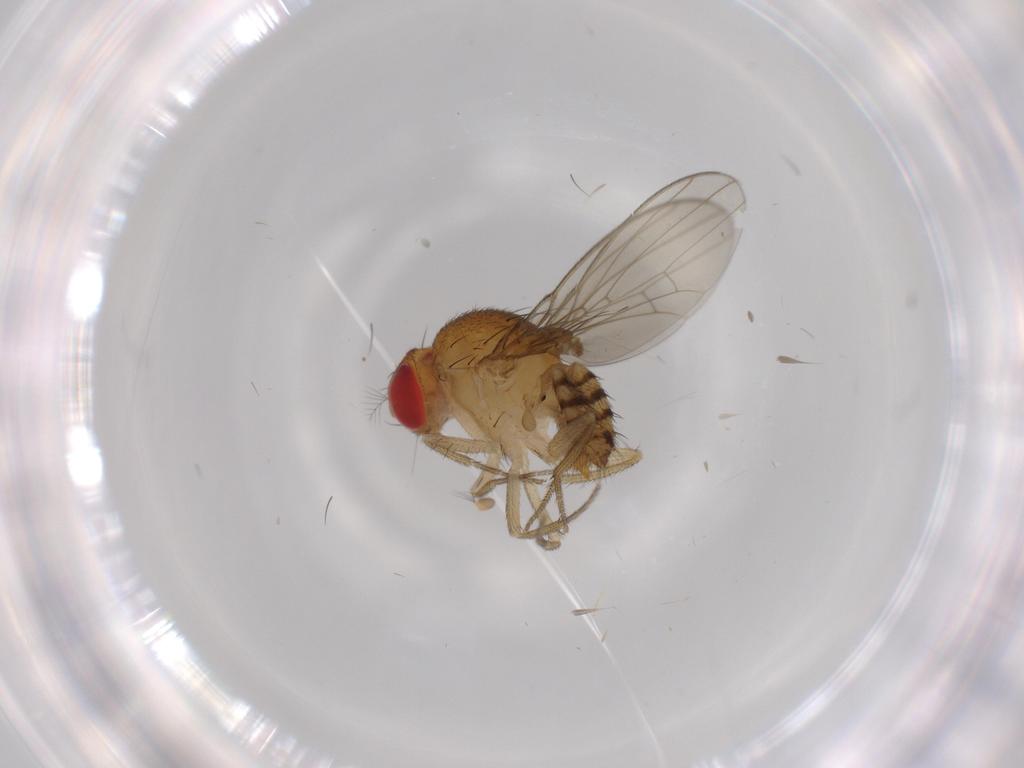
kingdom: Animalia
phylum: Arthropoda
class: Insecta
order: Diptera
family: Drosophilidae
